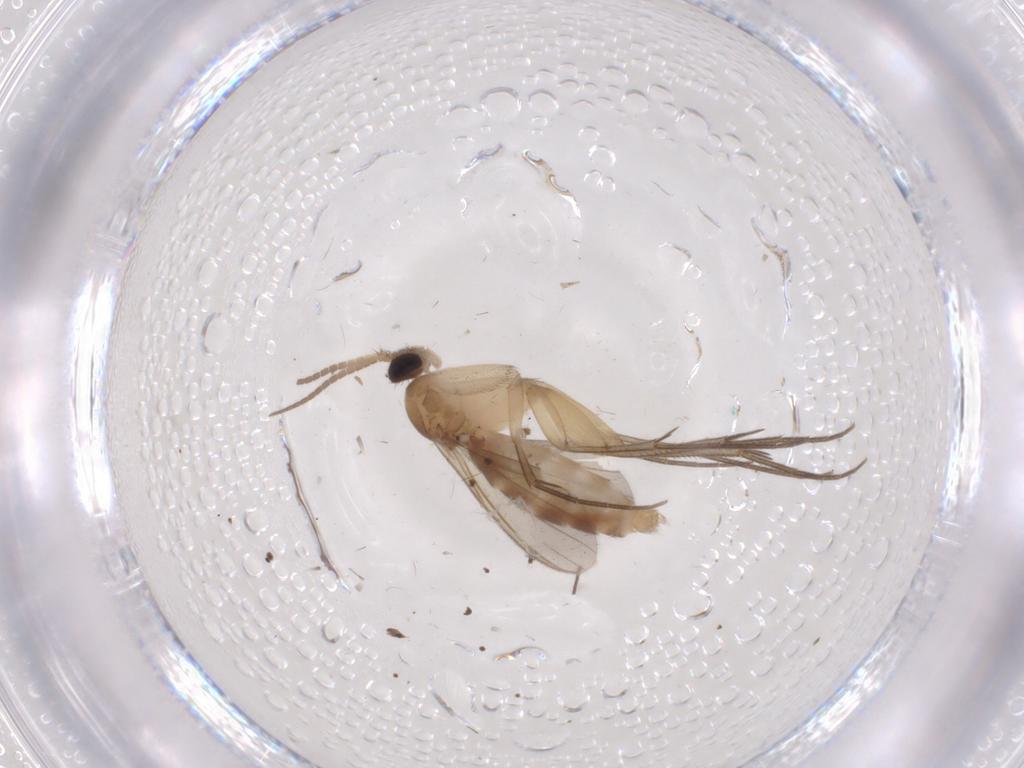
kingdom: Animalia
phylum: Arthropoda
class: Insecta
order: Diptera
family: Mycetophilidae
